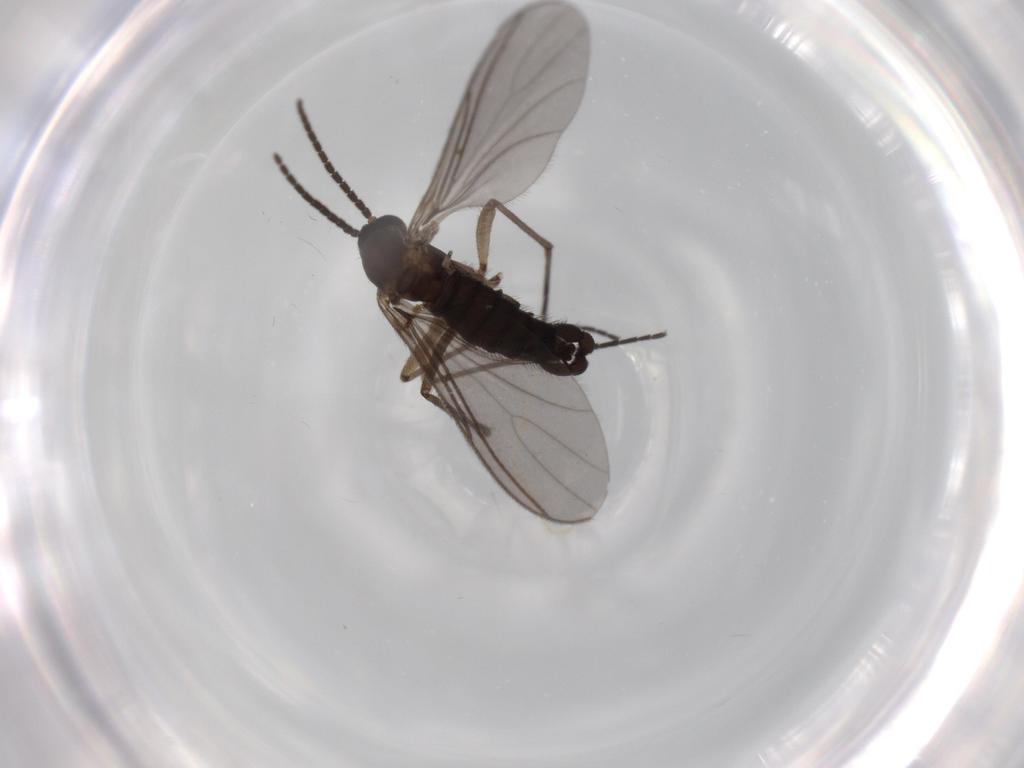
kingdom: Animalia
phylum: Arthropoda
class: Insecta
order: Diptera
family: Sciaridae
